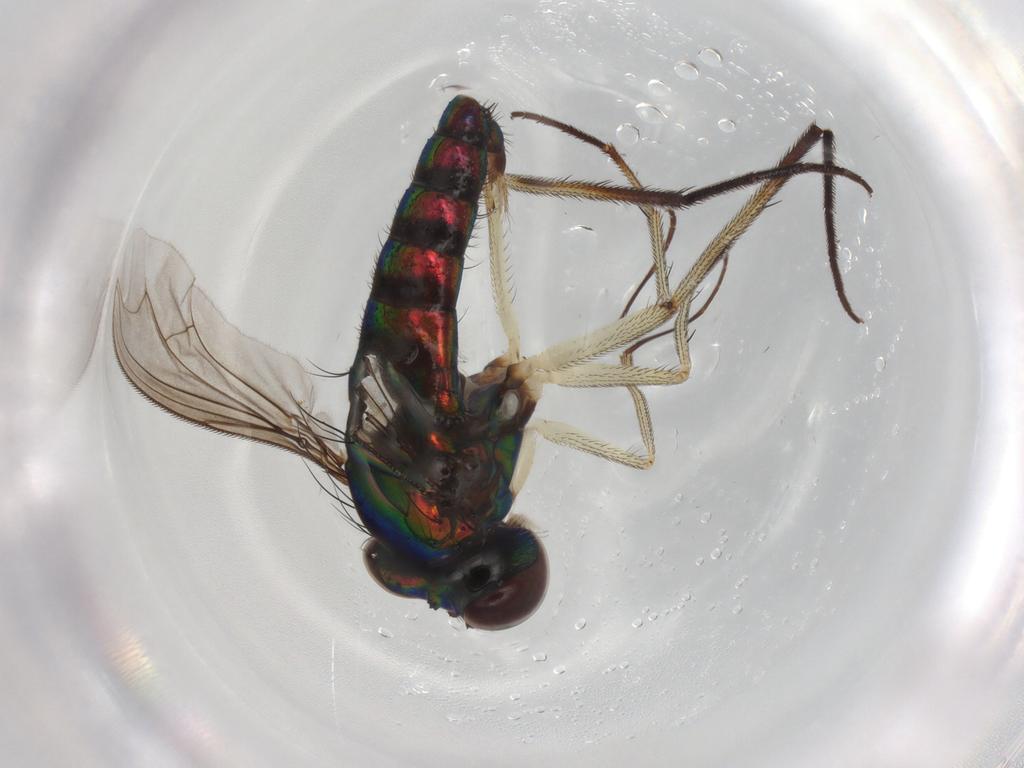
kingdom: Animalia
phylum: Arthropoda
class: Insecta
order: Diptera
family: Dolichopodidae
